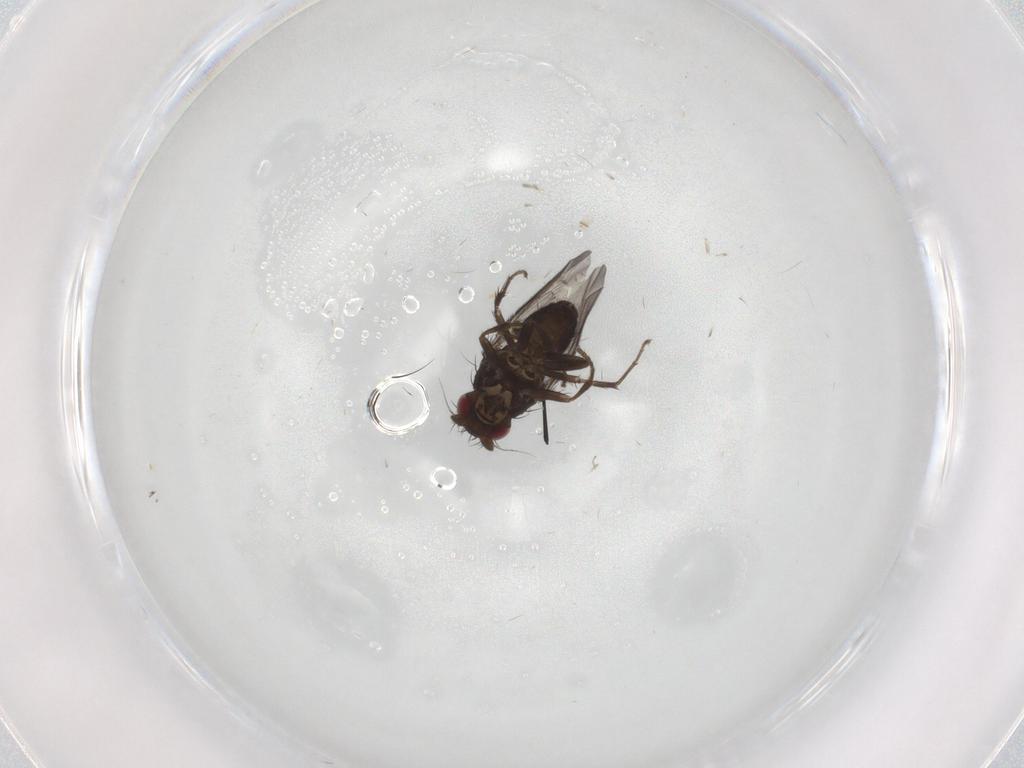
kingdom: Animalia
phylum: Arthropoda
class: Insecta
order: Diptera
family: Sphaeroceridae
